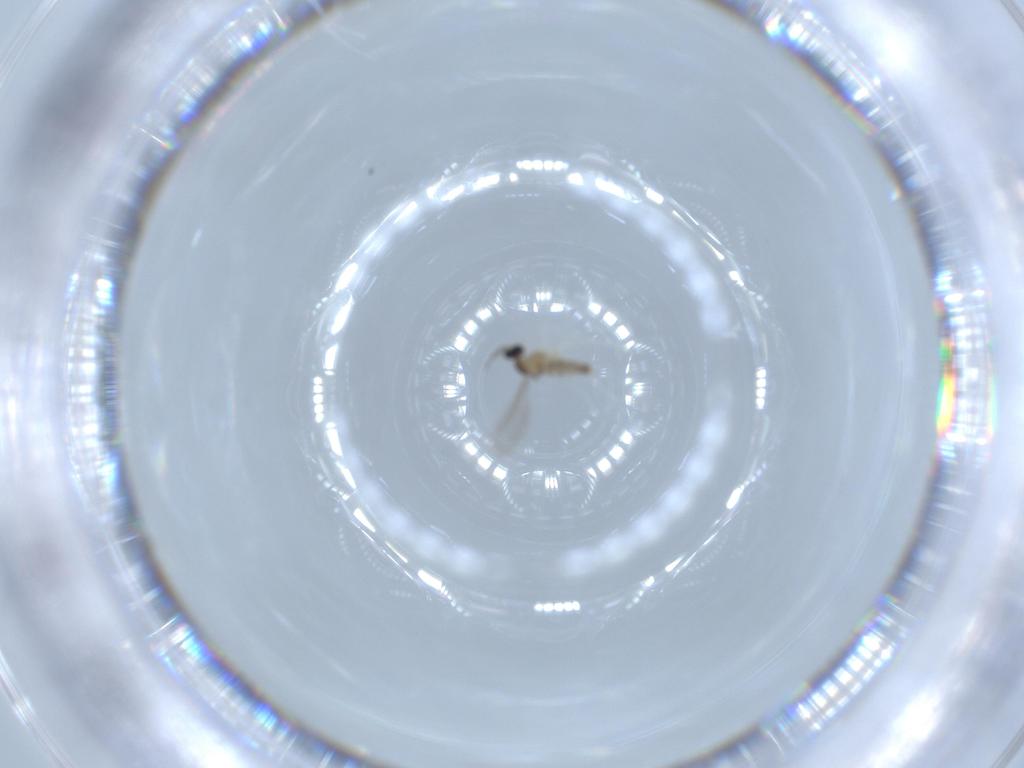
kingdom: Animalia
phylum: Arthropoda
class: Insecta
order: Diptera
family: Cecidomyiidae
